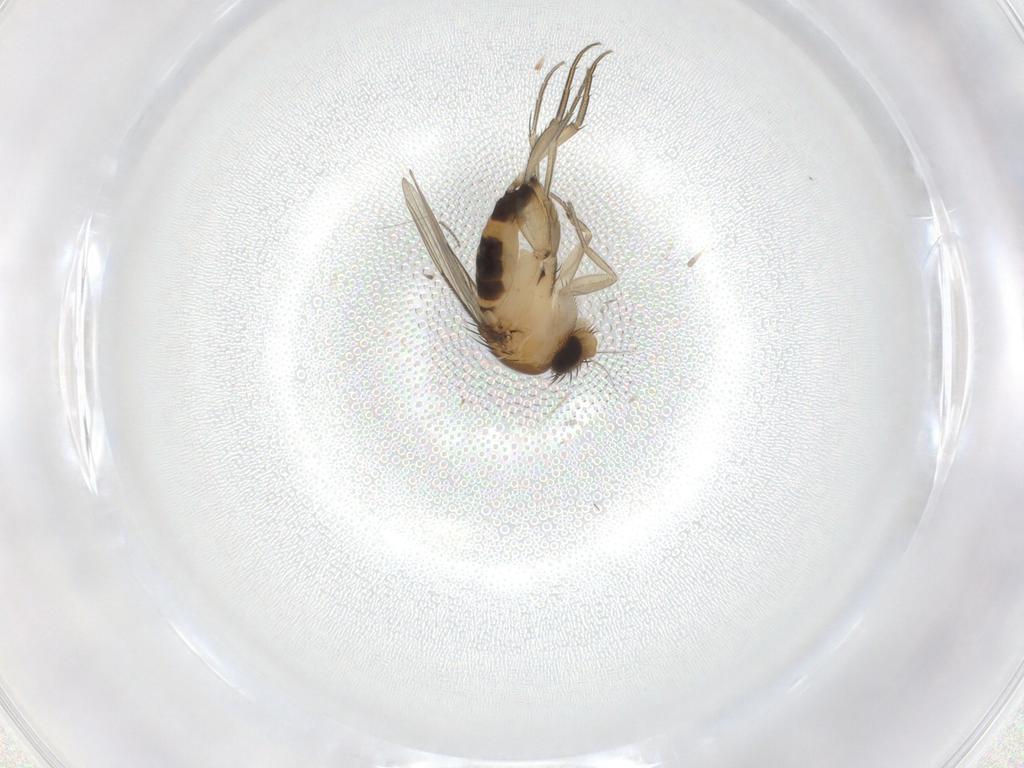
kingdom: Animalia
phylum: Arthropoda
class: Insecta
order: Diptera
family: Phoridae
